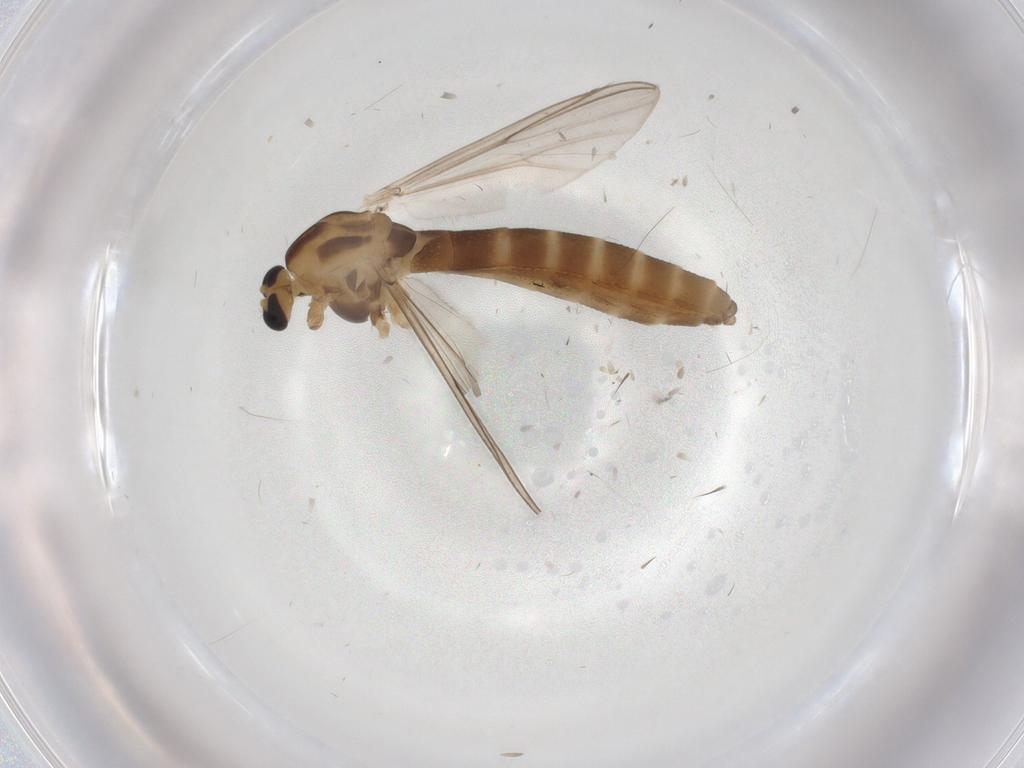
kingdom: Animalia
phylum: Arthropoda
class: Insecta
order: Diptera
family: Chironomidae
